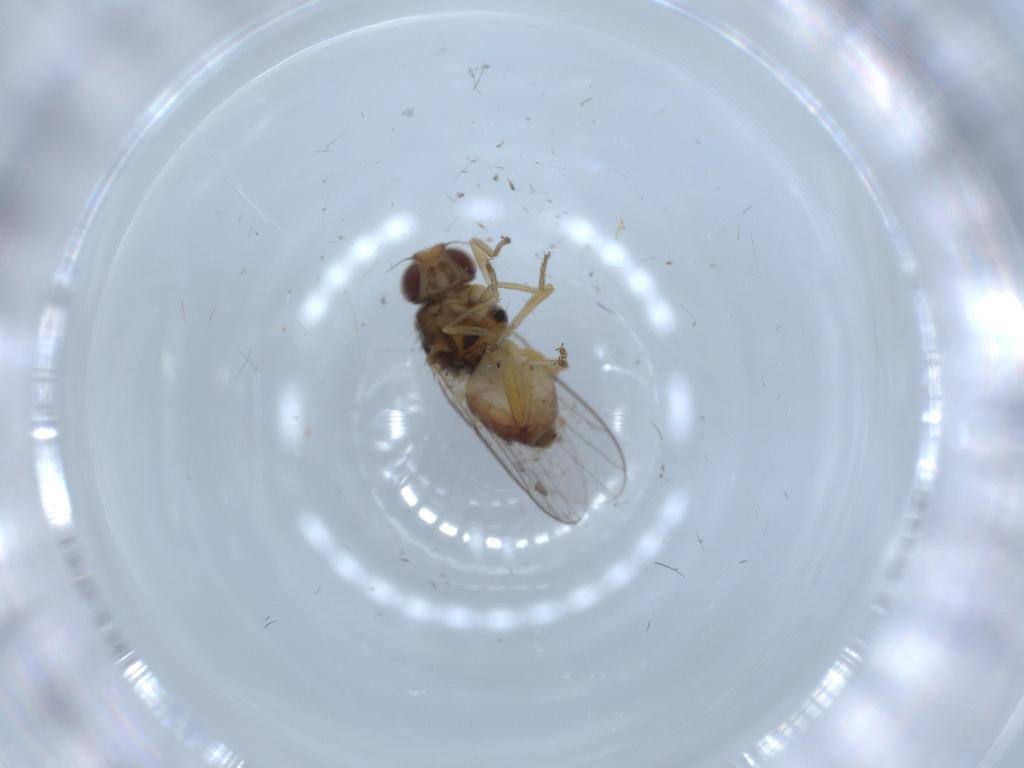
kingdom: Animalia
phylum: Arthropoda
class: Insecta
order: Diptera
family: Chloropidae
